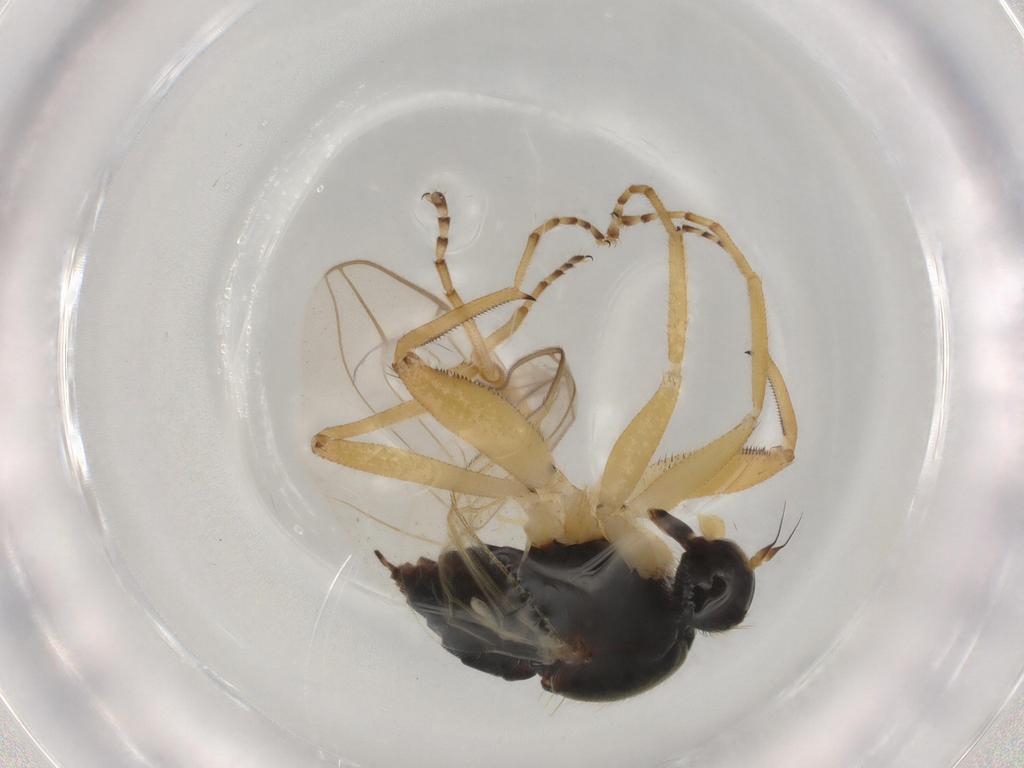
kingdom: Animalia
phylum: Arthropoda
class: Insecta
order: Diptera
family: Hybotidae
